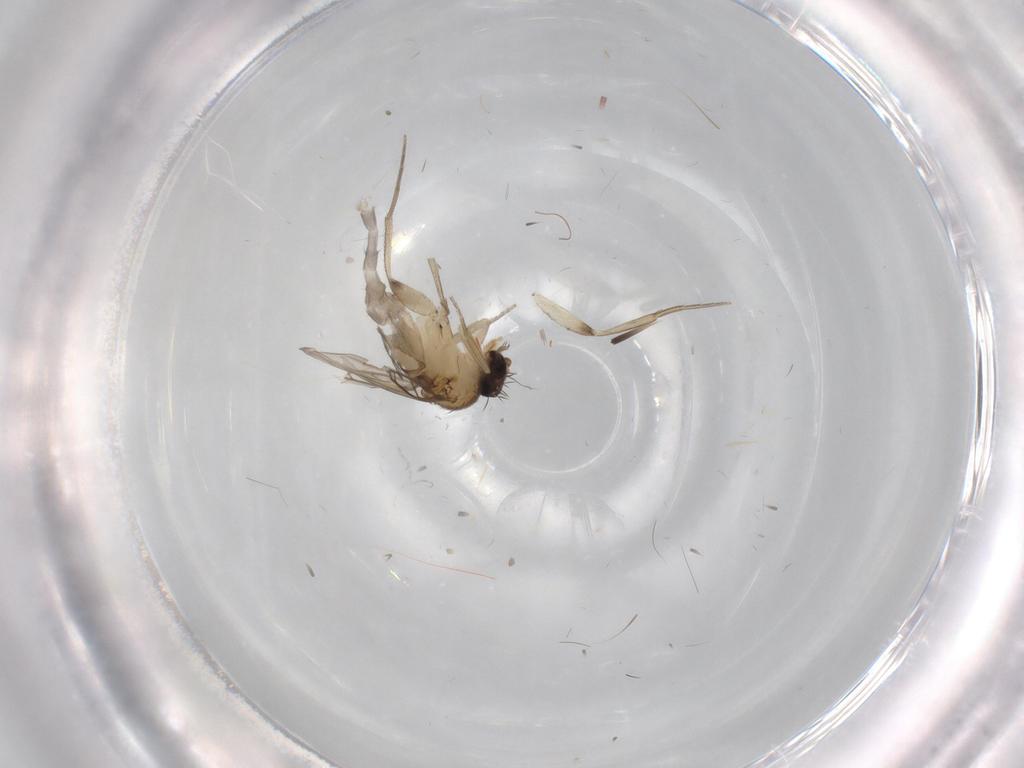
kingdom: Animalia
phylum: Arthropoda
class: Insecta
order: Diptera
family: Phoridae
